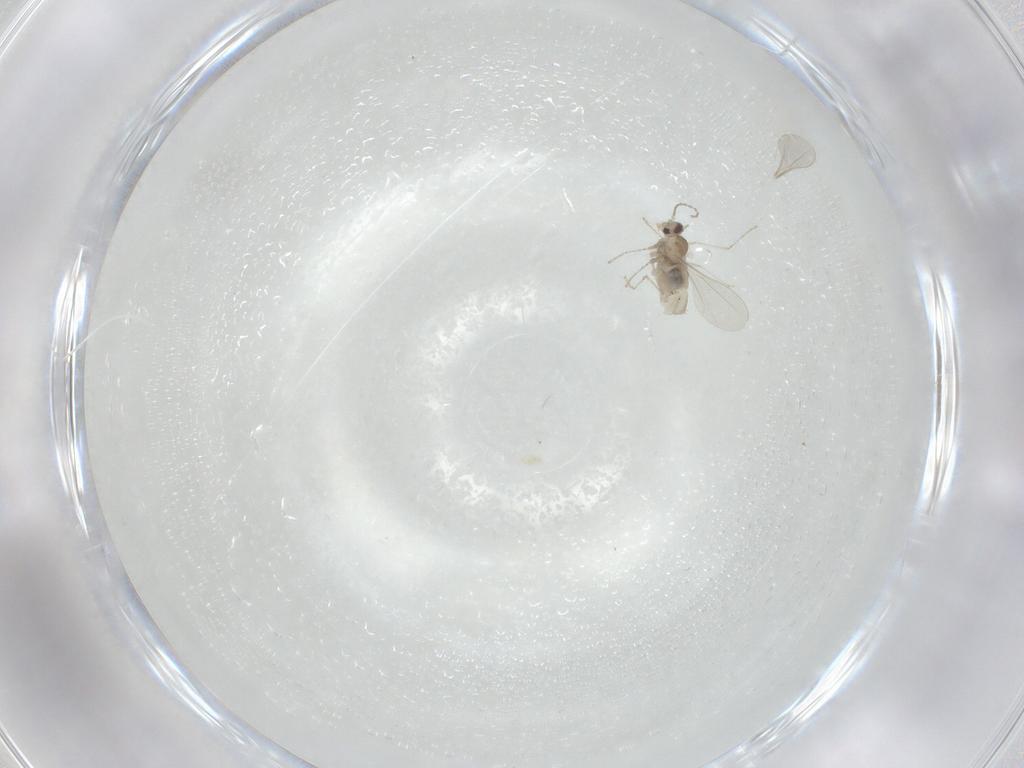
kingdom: Animalia
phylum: Arthropoda
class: Insecta
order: Diptera
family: Cecidomyiidae
